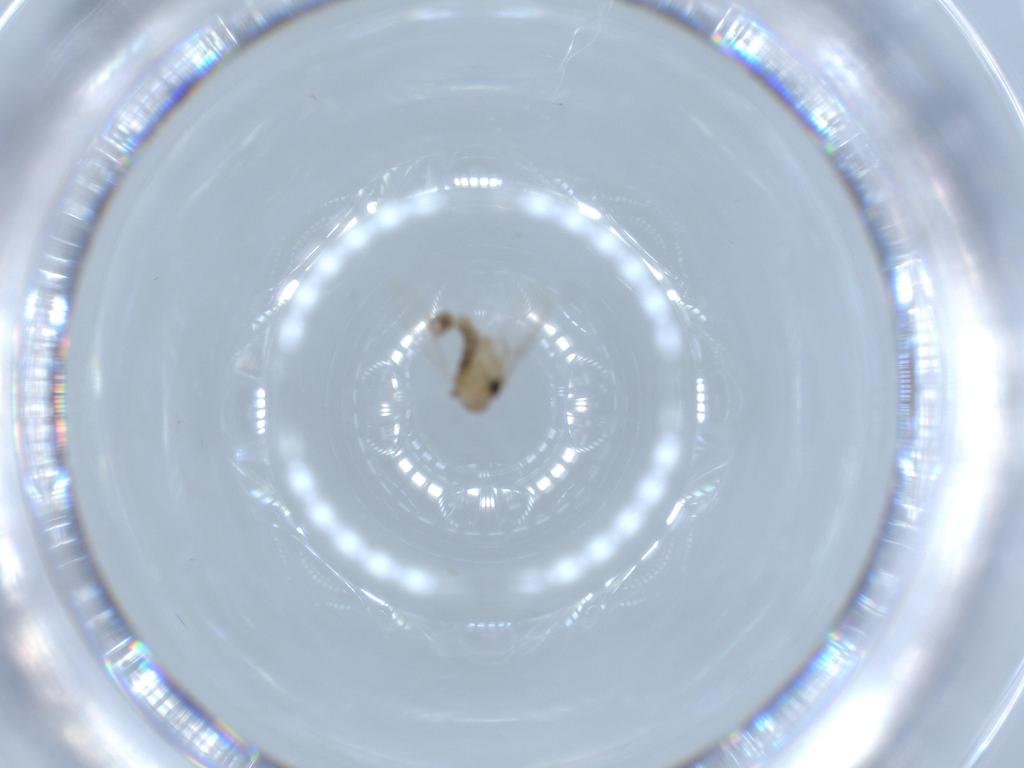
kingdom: Animalia
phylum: Arthropoda
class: Insecta
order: Diptera
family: Psychodidae
